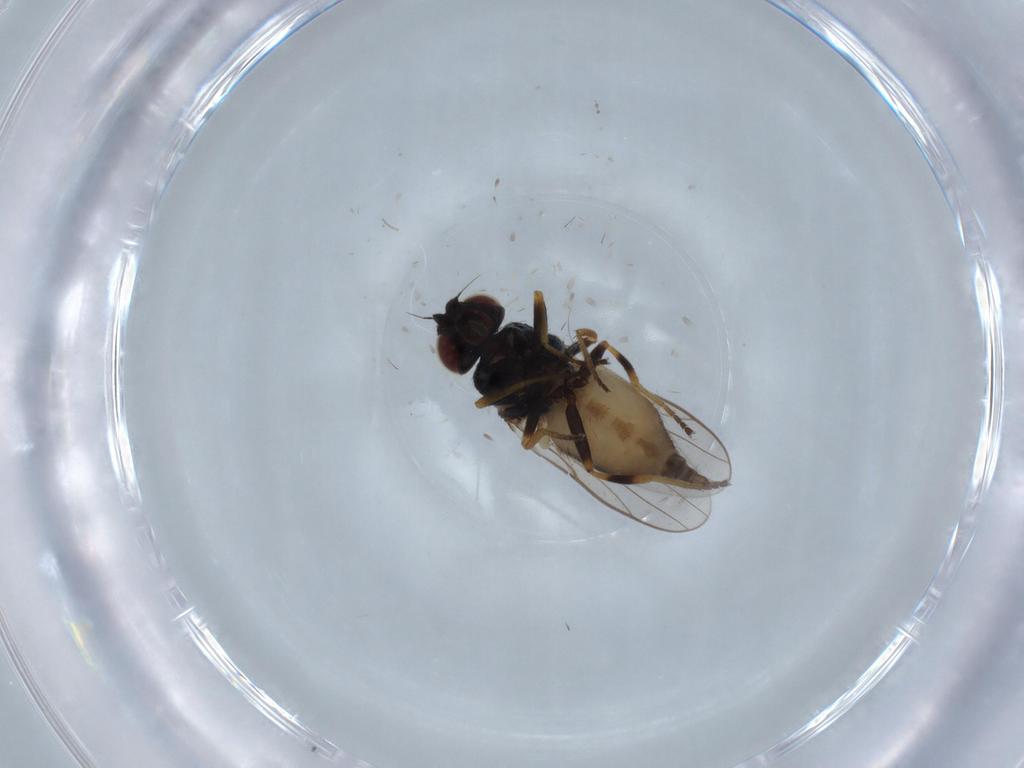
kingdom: Animalia
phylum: Arthropoda
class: Insecta
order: Diptera
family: Chloropidae
